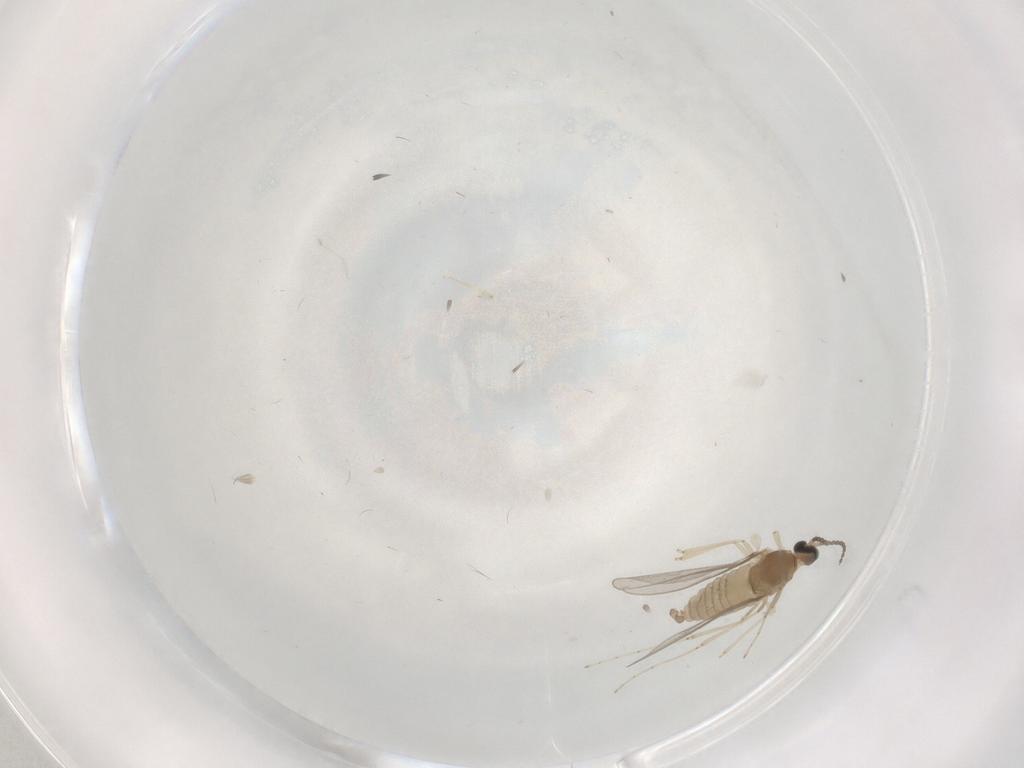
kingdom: Animalia
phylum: Arthropoda
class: Insecta
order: Diptera
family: Cecidomyiidae
